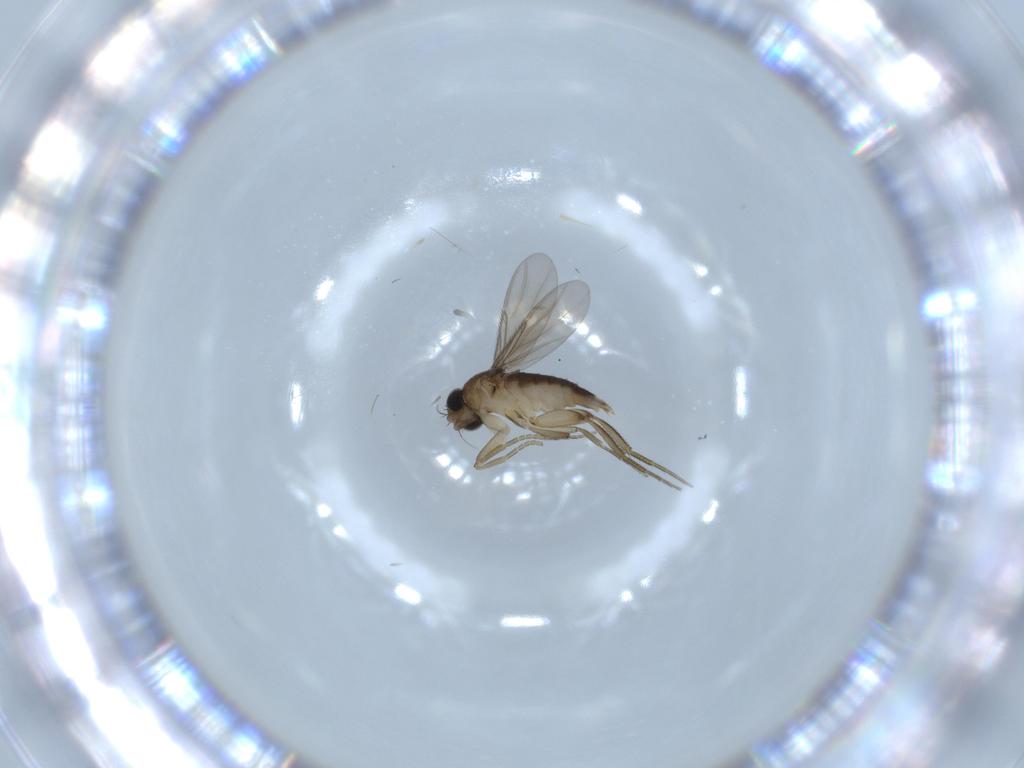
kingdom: Animalia
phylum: Arthropoda
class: Insecta
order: Diptera
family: Phoridae
